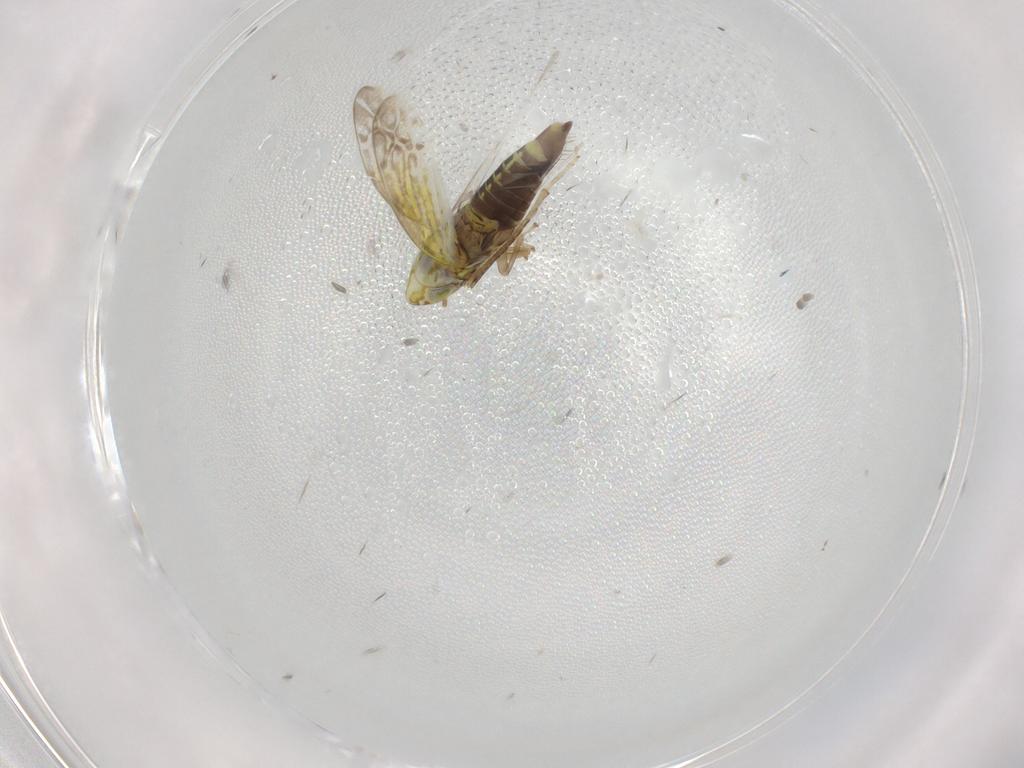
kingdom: Animalia
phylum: Arthropoda
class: Insecta
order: Hemiptera
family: Cicadellidae
